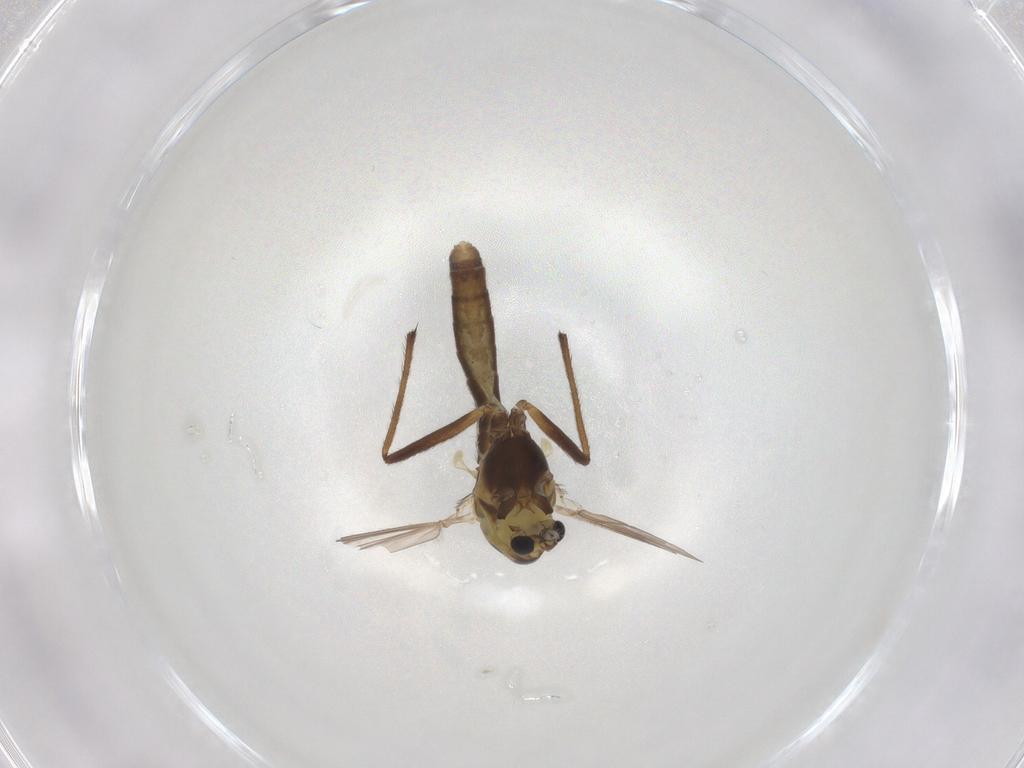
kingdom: Animalia
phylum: Arthropoda
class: Insecta
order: Diptera
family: Chironomidae
